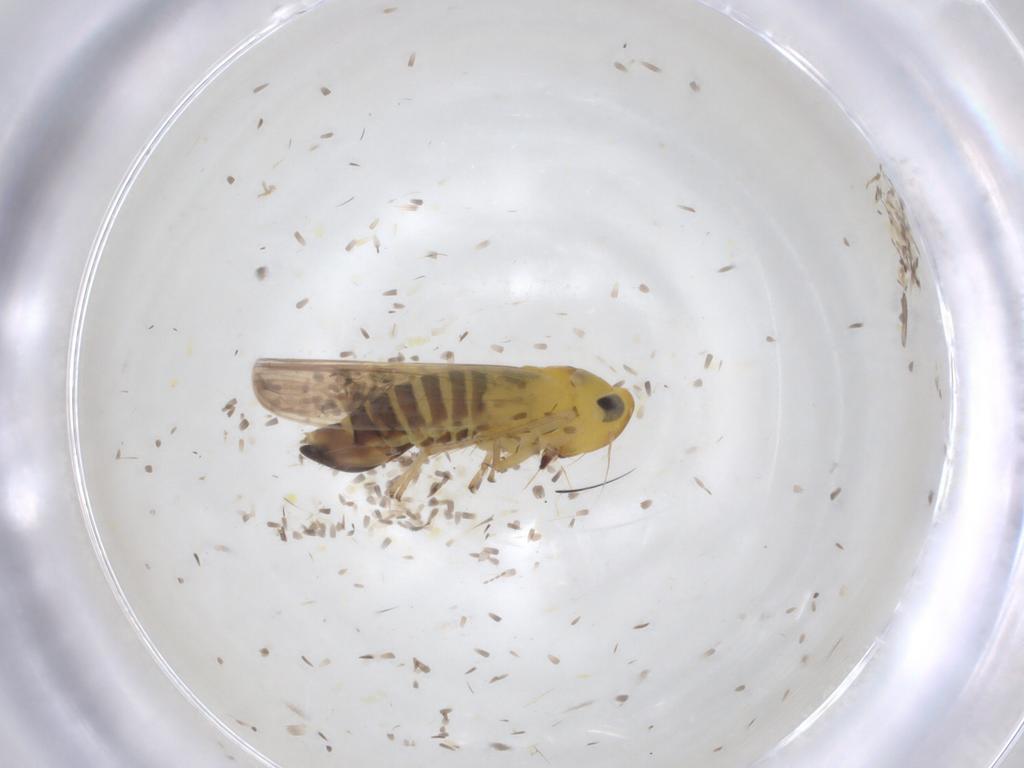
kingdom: Animalia
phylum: Arthropoda
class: Insecta
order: Hemiptera
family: Cicadellidae
